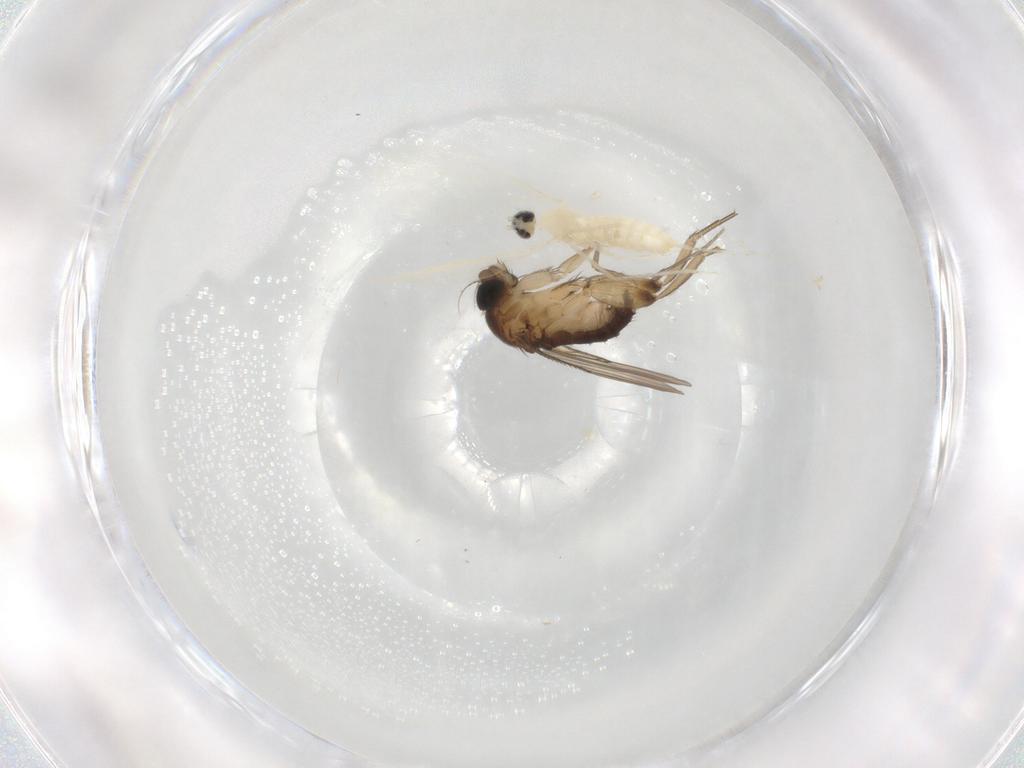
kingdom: Animalia
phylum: Arthropoda
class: Insecta
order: Diptera
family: Cecidomyiidae
